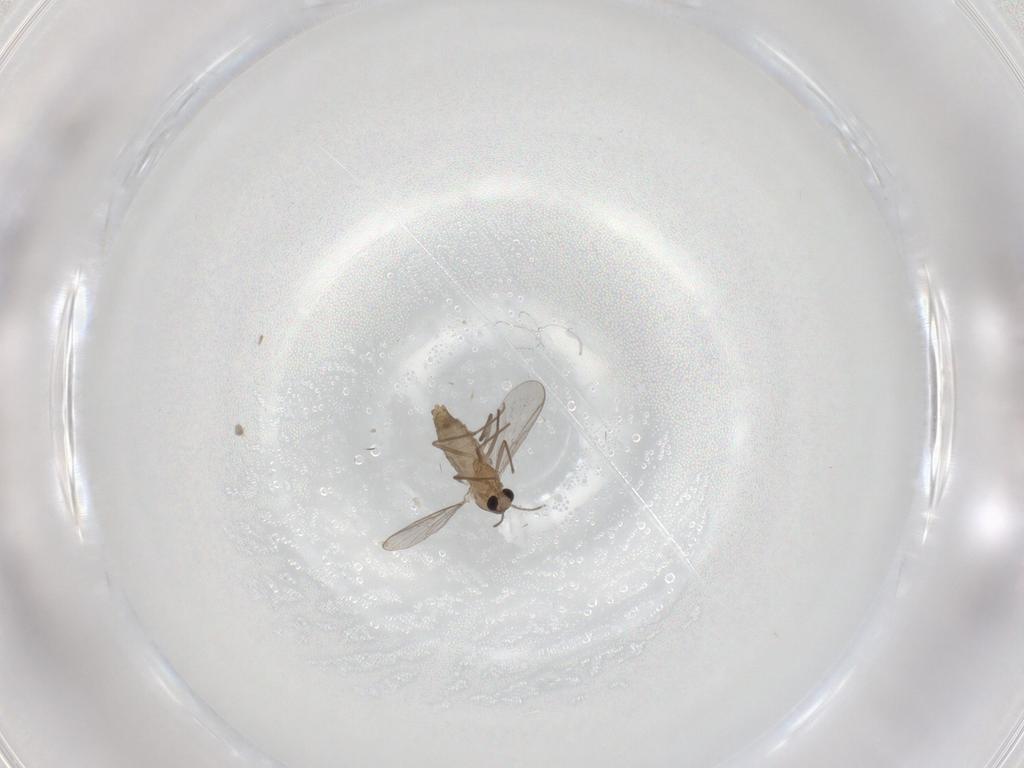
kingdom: Animalia
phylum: Arthropoda
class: Insecta
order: Diptera
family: Chironomidae
